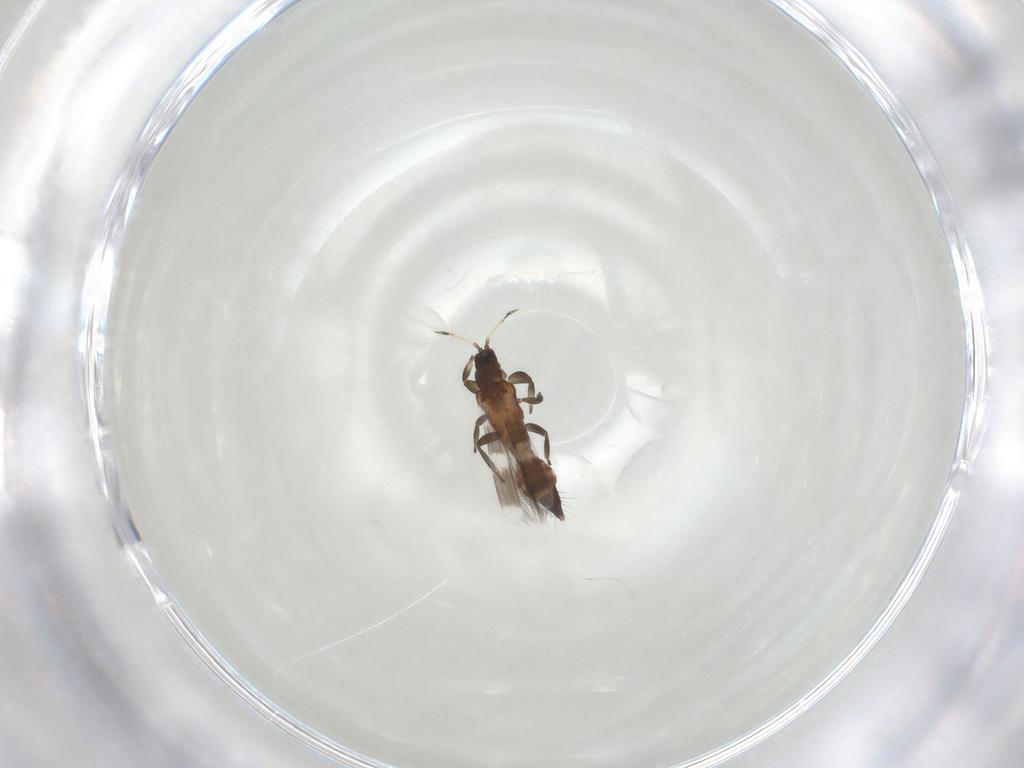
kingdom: Animalia
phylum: Arthropoda
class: Insecta
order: Thysanoptera
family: Aeolothripidae
